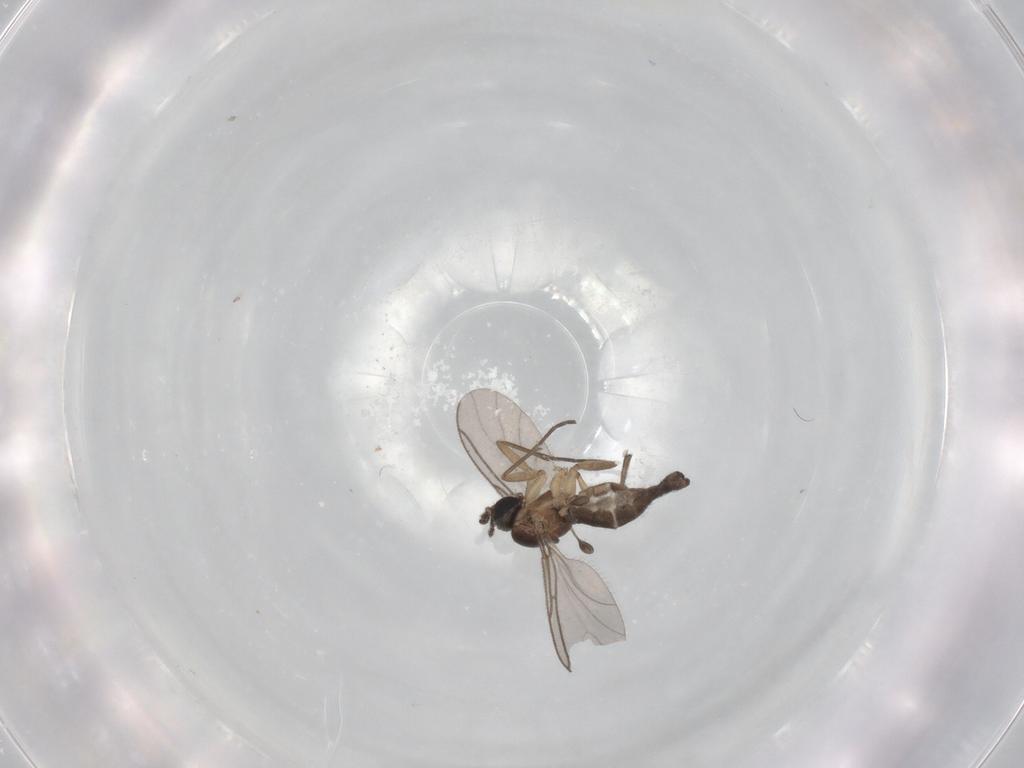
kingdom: Animalia
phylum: Arthropoda
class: Insecta
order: Diptera
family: Sciaridae
